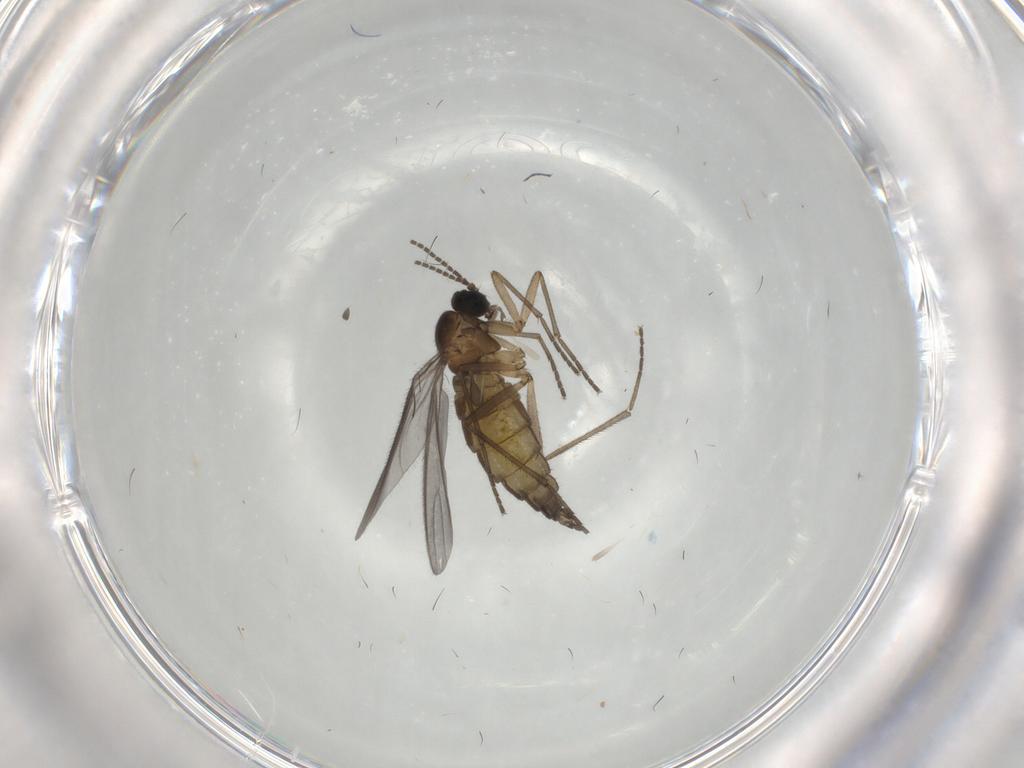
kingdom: Animalia
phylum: Arthropoda
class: Insecta
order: Diptera
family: Sciaridae
